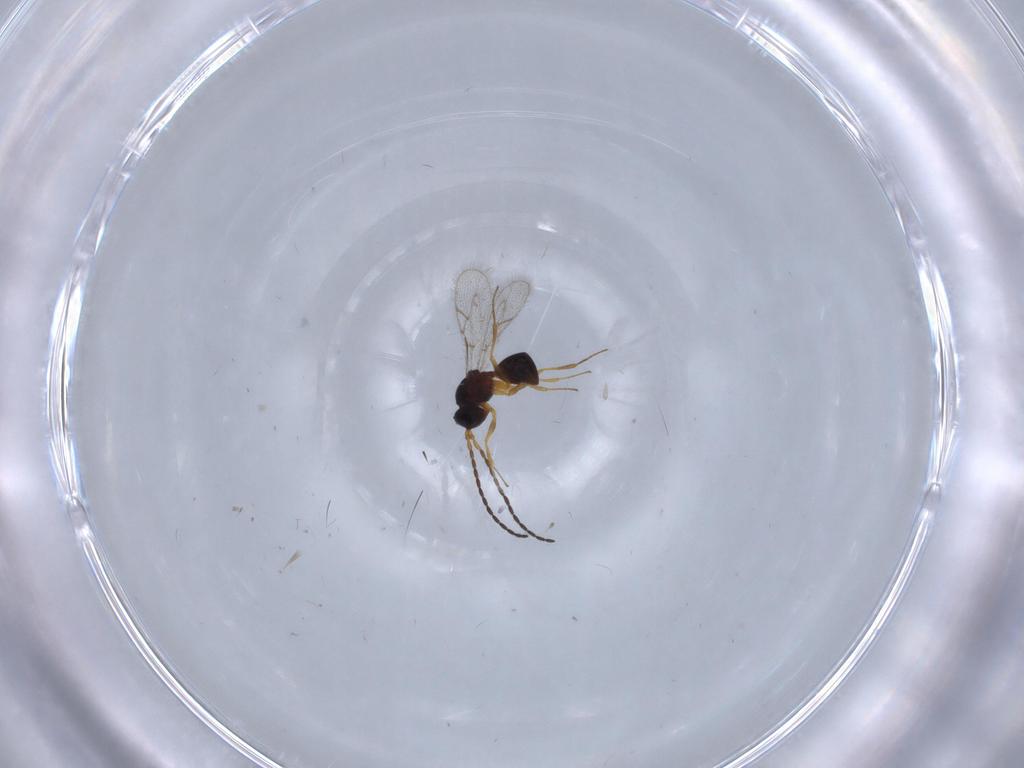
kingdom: Animalia
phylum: Arthropoda
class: Insecta
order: Hymenoptera
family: Figitidae
